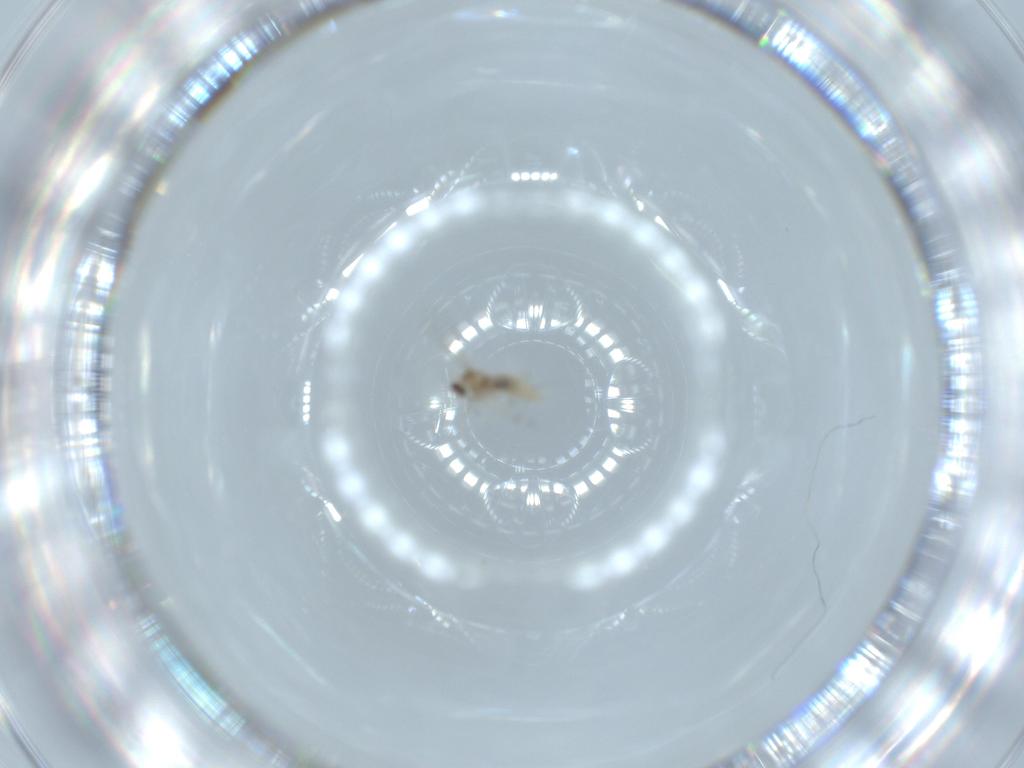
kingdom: Animalia
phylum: Arthropoda
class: Insecta
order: Diptera
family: Cecidomyiidae
